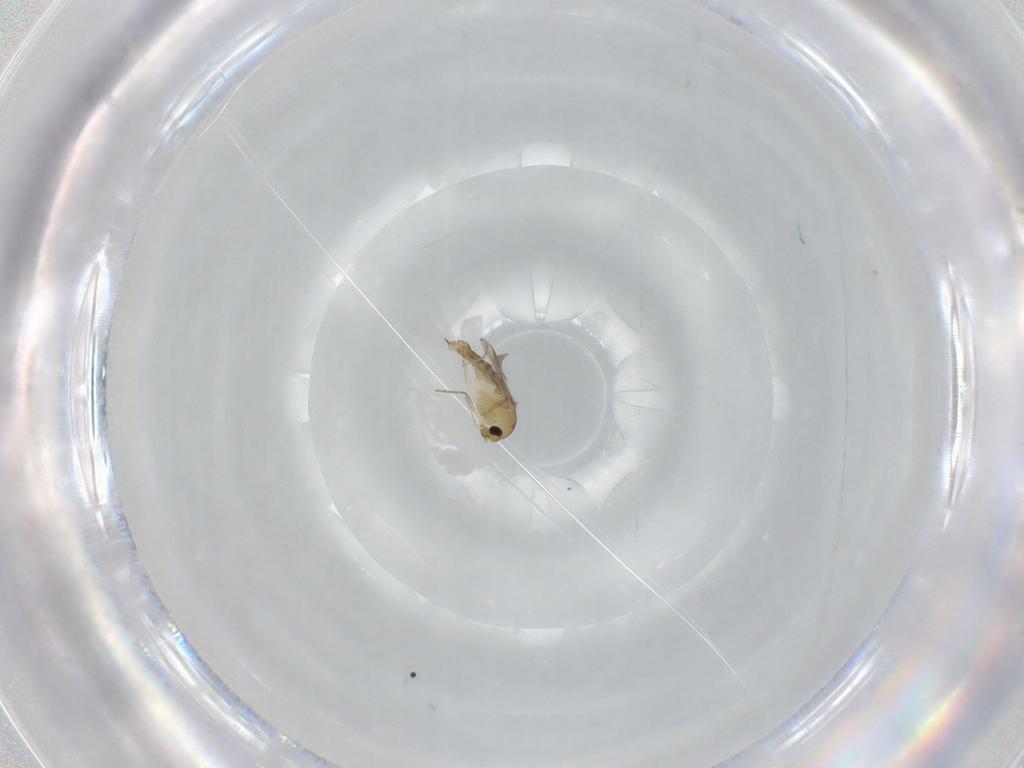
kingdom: Animalia
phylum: Arthropoda
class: Insecta
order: Diptera
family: Chironomidae
